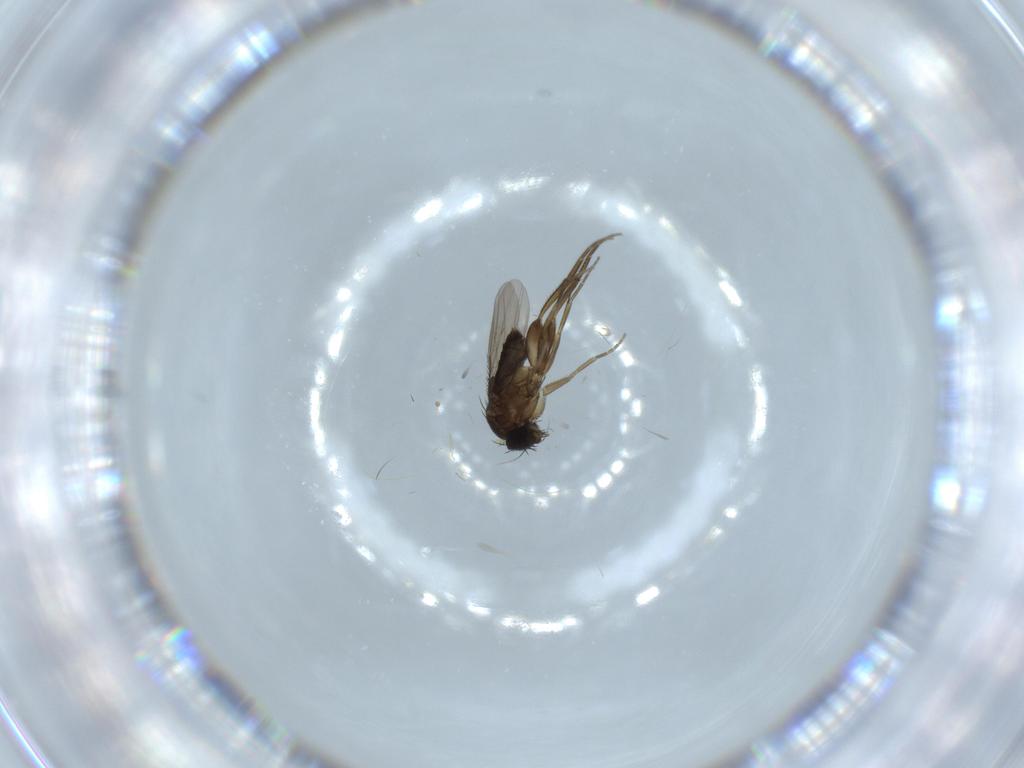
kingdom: Animalia
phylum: Arthropoda
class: Insecta
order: Diptera
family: Phoridae
